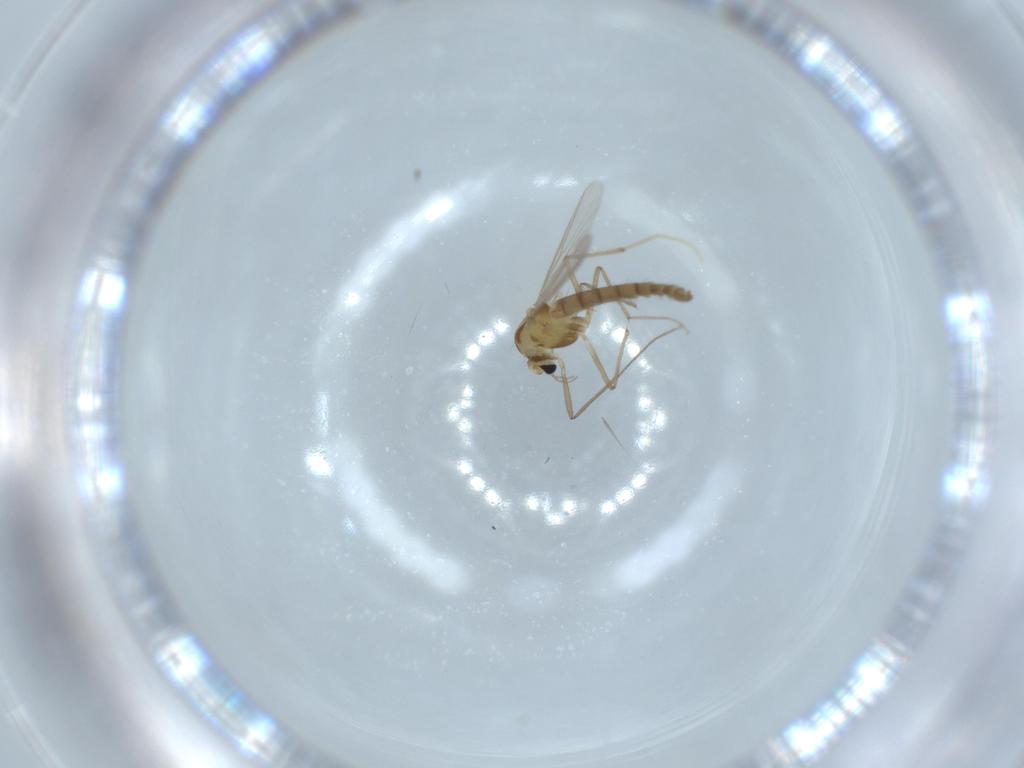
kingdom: Animalia
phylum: Arthropoda
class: Insecta
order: Diptera
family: Chironomidae
